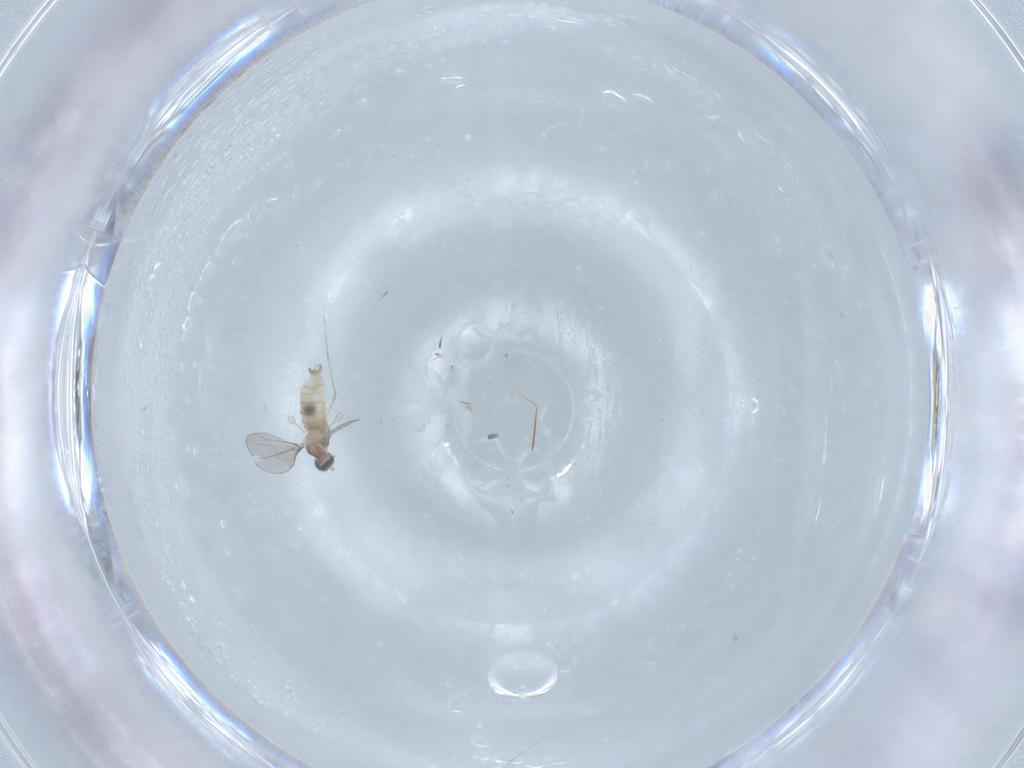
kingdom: Animalia
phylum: Arthropoda
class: Insecta
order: Diptera
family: Cecidomyiidae
